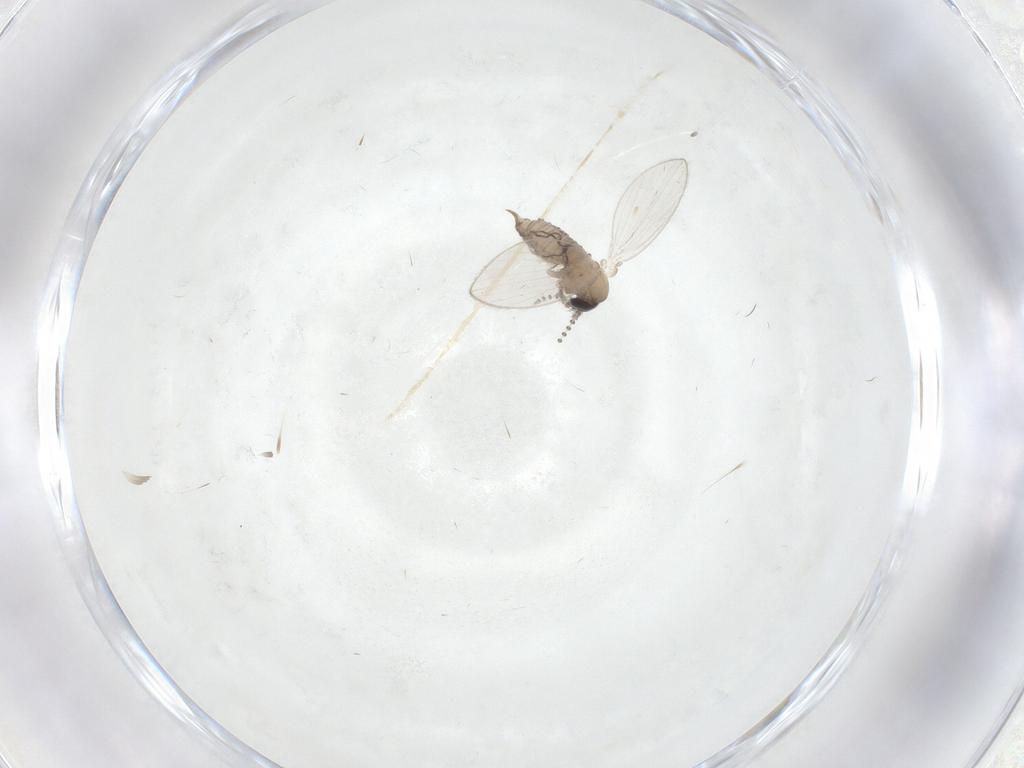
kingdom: Animalia
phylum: Arthropoda
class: Insecta
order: Diptera
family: Psychodidae
